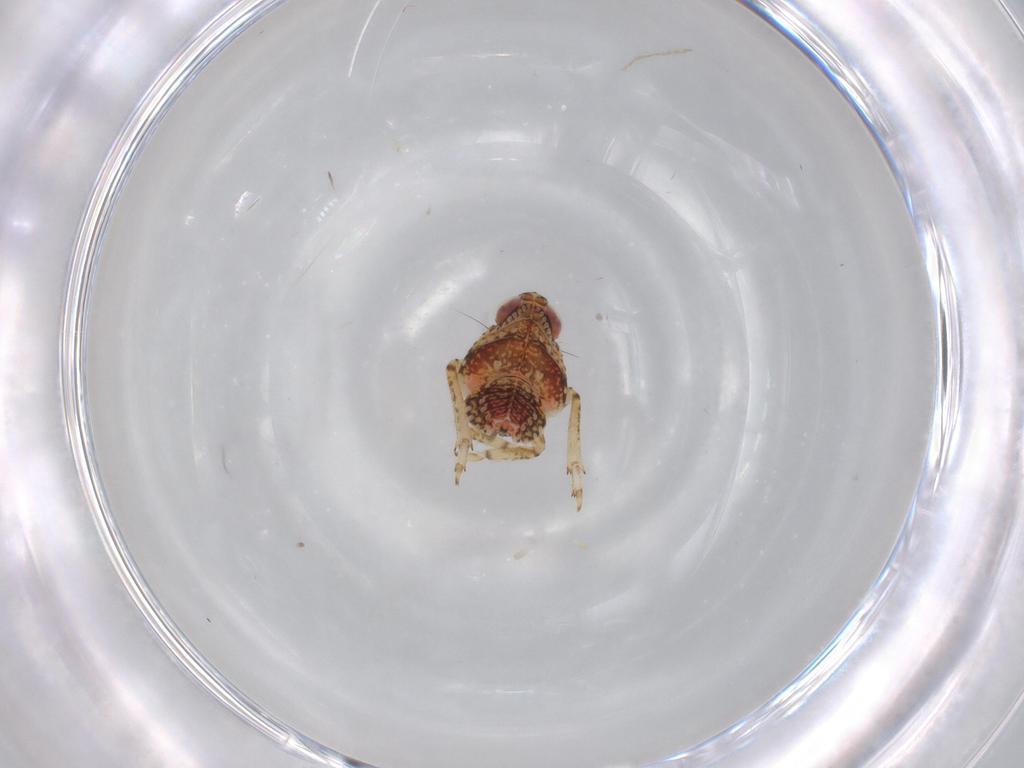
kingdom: Animalia
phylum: Arthropoda
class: Insecta
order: Hemiptera
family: Issidae
